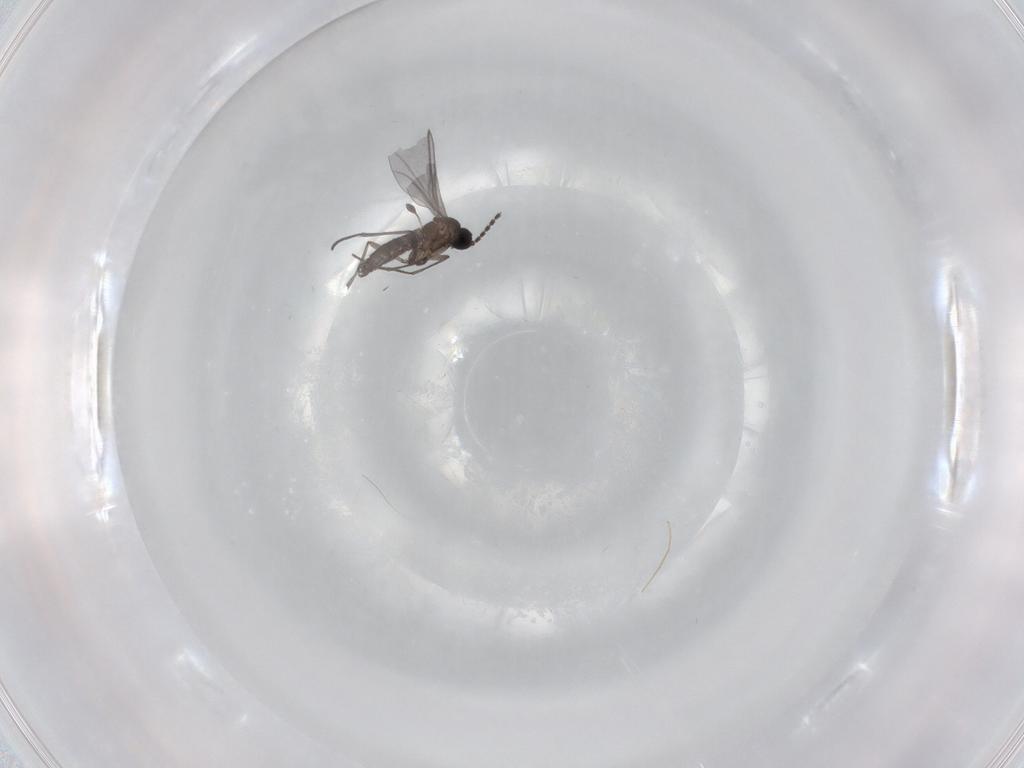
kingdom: Animalia
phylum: Arthropoda
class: Insecta
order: Diptera
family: Chironomidae
